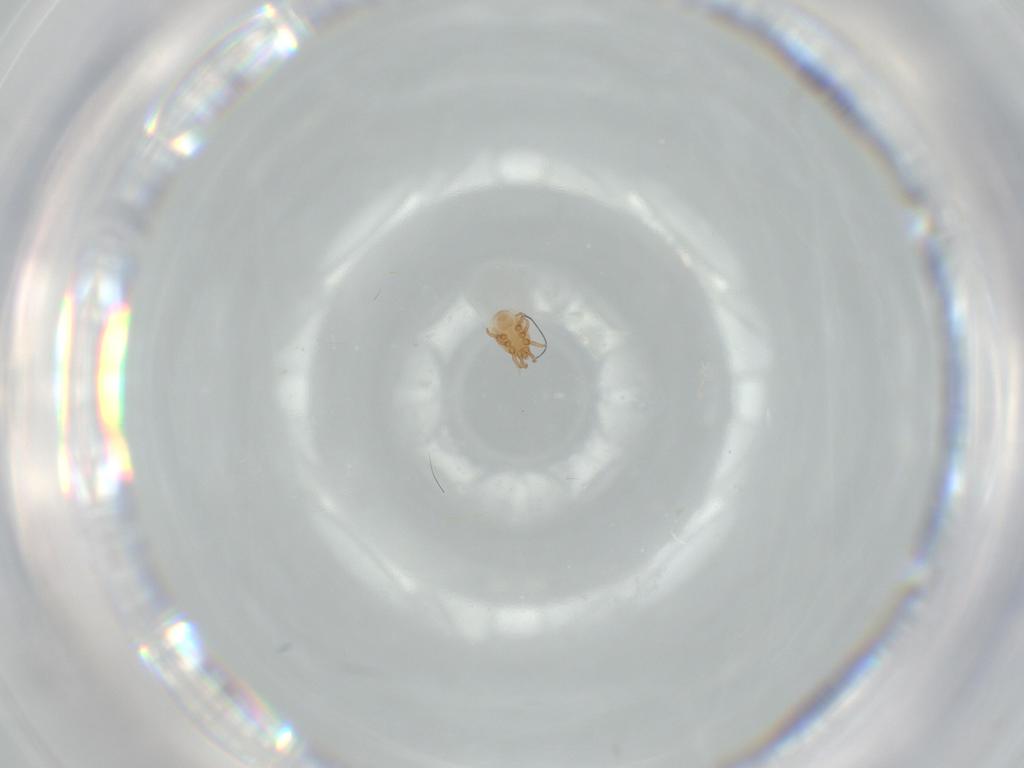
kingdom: Animalia
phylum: Arthropoda
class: Arachnida
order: Mesostigmata
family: Dinychidae
